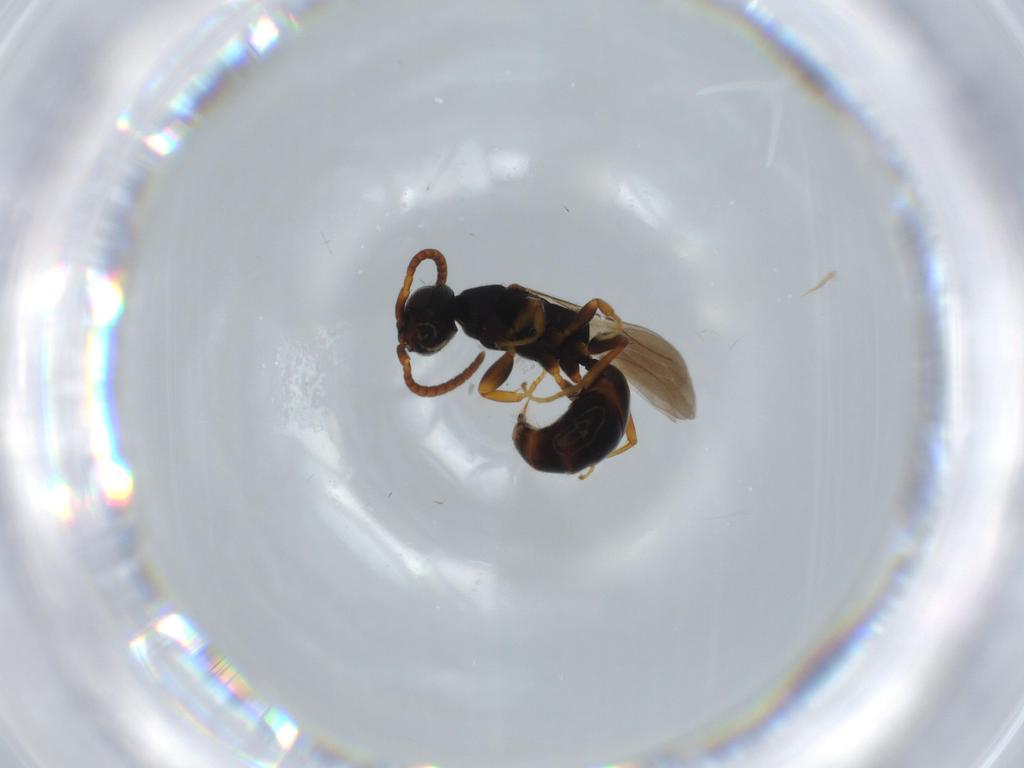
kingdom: Animalia
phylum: Arthropoda
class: Insecta
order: Hymenoptera
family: Bethylidae
